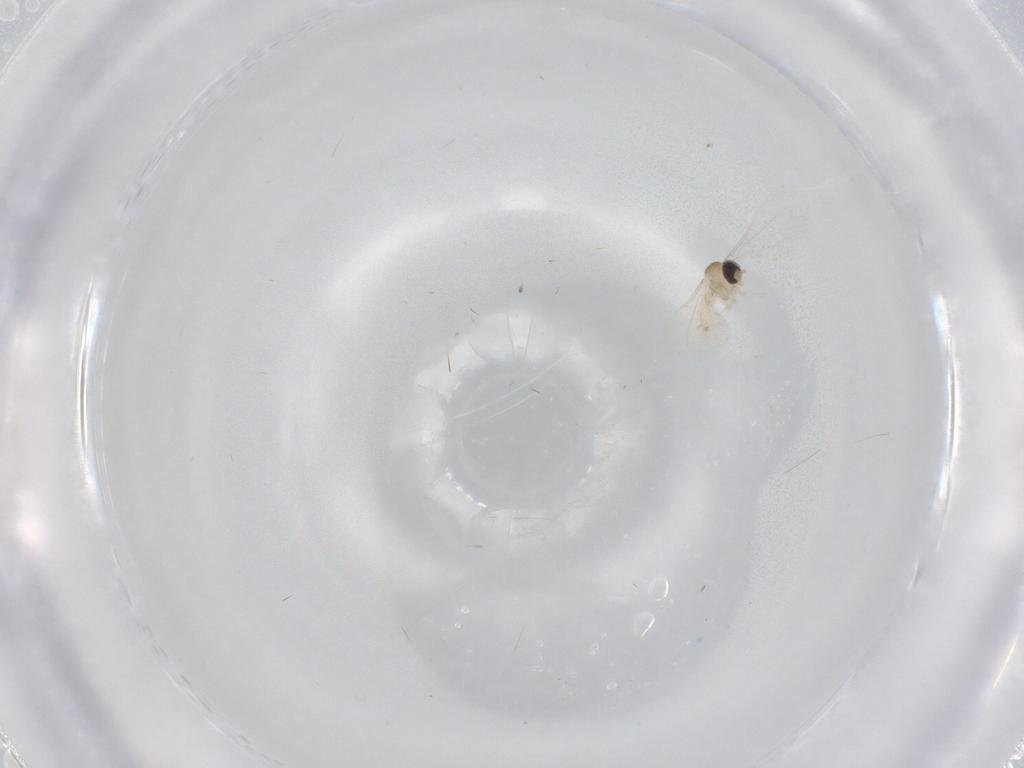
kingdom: Animalia
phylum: Arthropoda
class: Insecta
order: Diptera
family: Cecidomyiidae
